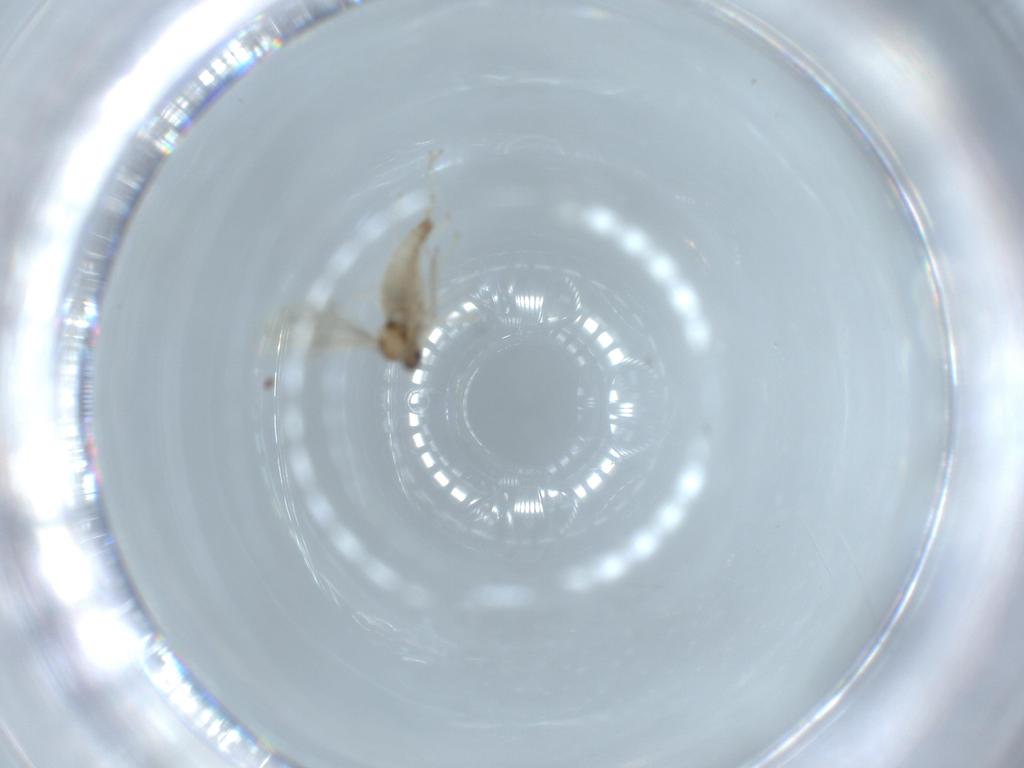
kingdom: Animalia
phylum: Arthropoda
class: Insecta
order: Diptera
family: Cecidomyiidae
